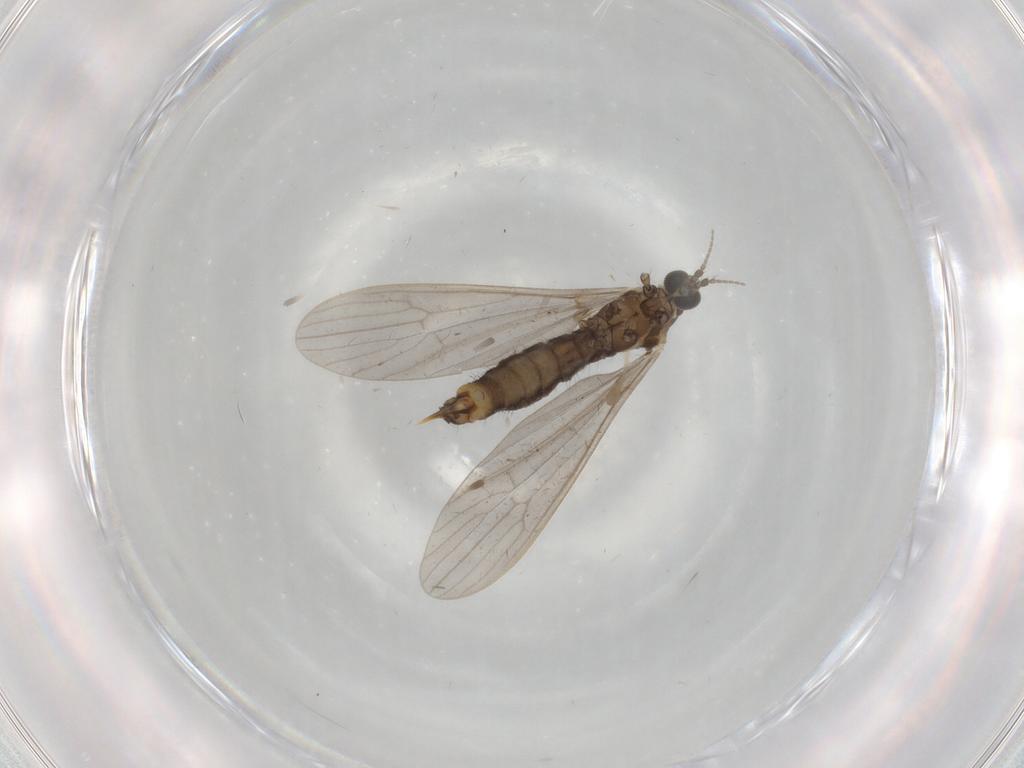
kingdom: Animalia
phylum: Arthropoda
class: Insecta
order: Diptera
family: Limoniidae
